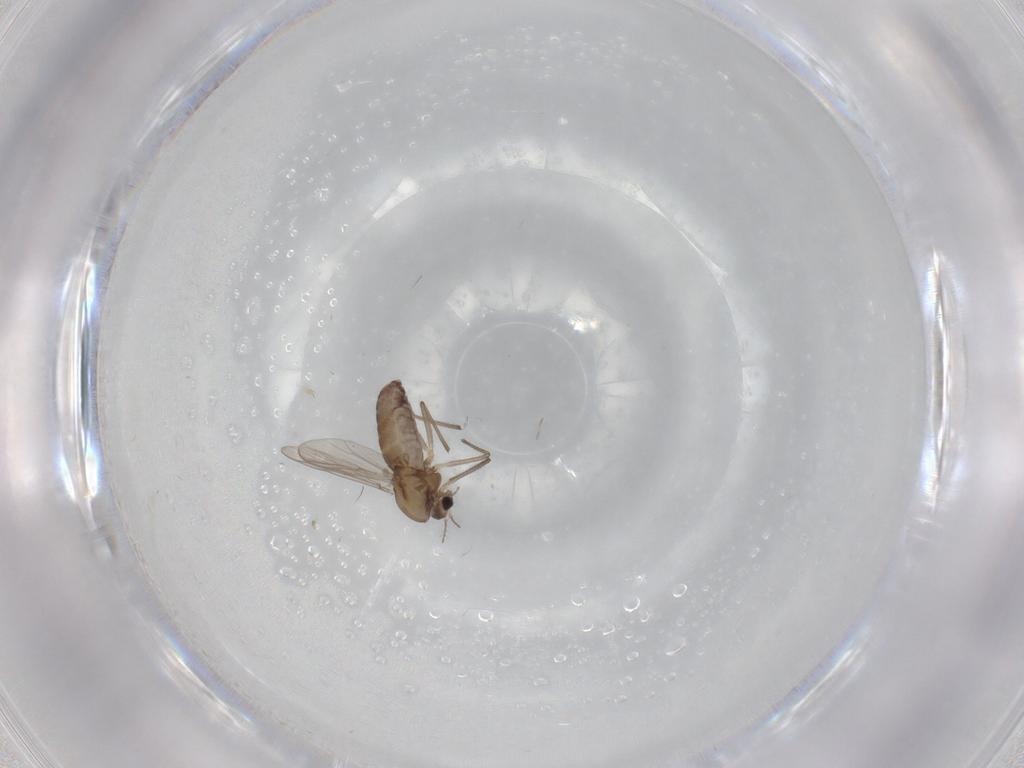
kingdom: Animalia
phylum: Arthropoda
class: Insecta
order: Diptera
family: Chironomidae
